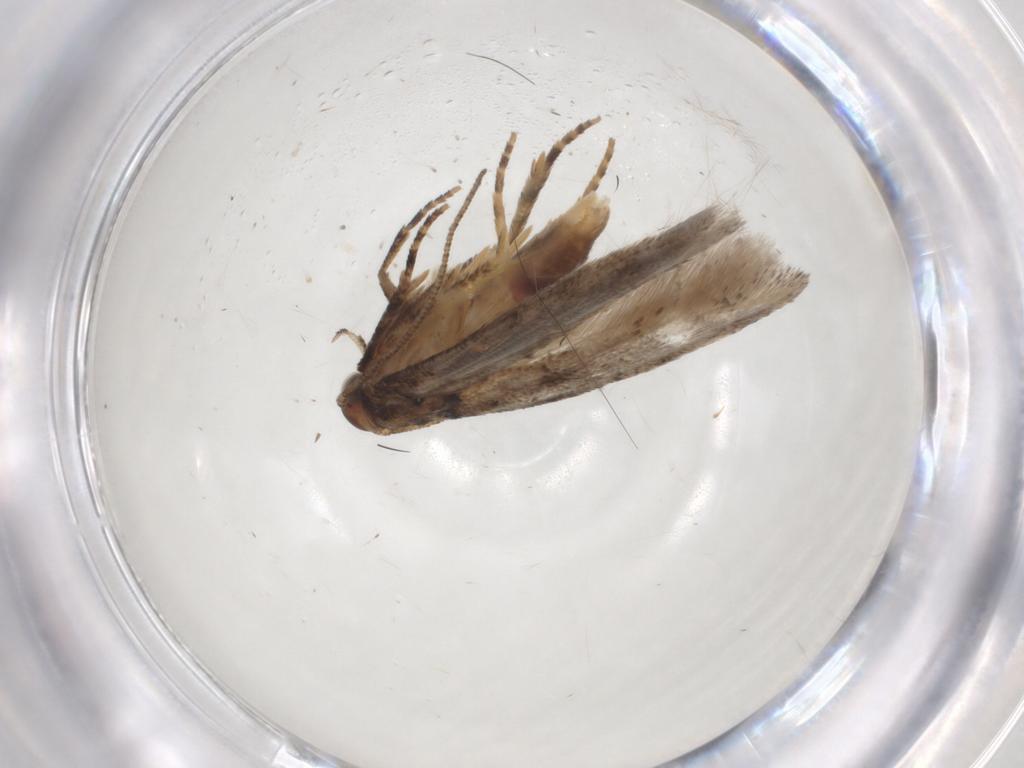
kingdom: Animalia
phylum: Arthropoda
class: Insecta
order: Lepidoptera
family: Gelechiidae
